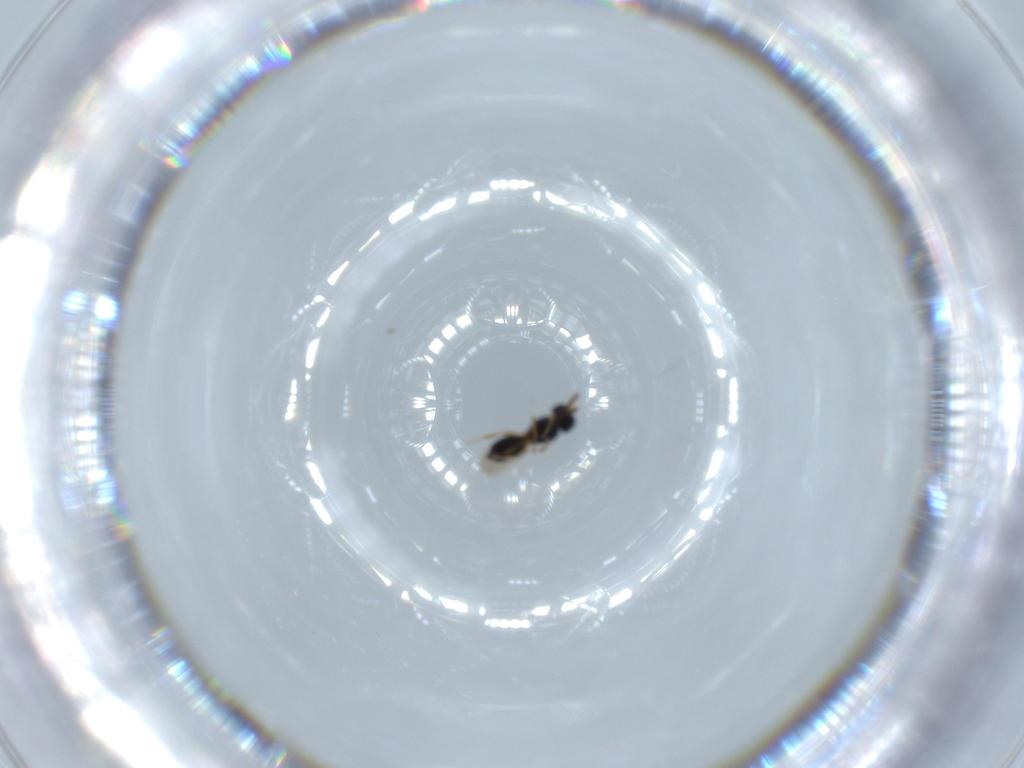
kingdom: Animalia
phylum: Arthropoda
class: Insecta
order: Hymenoptera
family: Scelionidae
